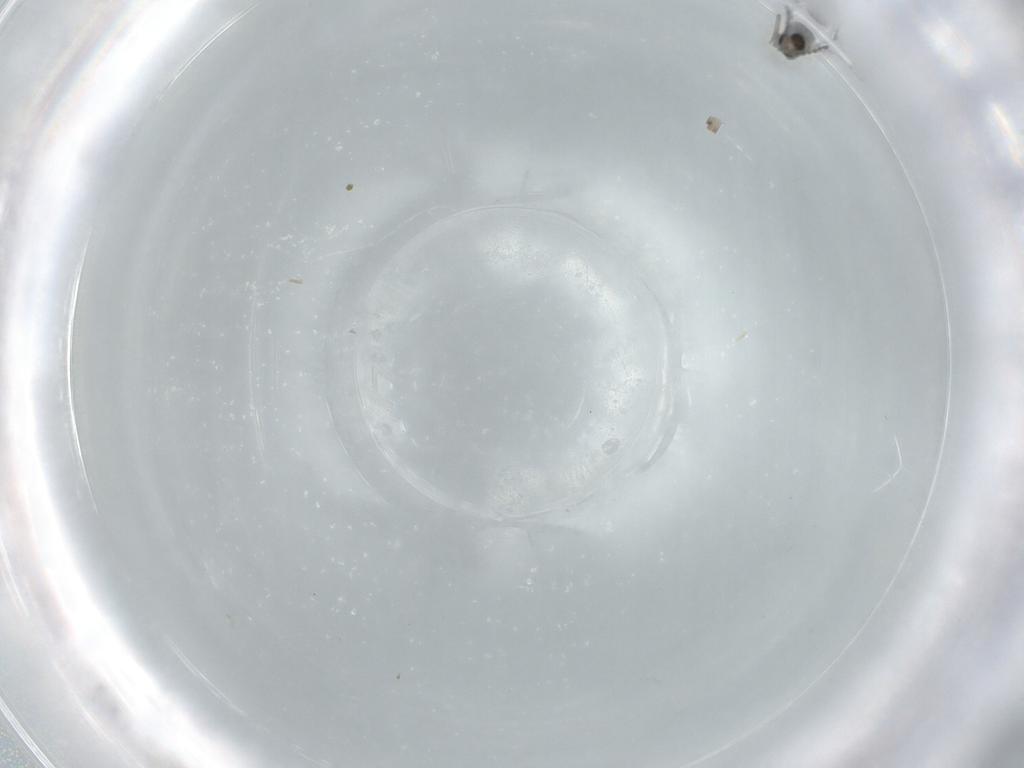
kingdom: Animalia
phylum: Arthropoda
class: Insecta
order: Diptera
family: Cecidomyiidae
